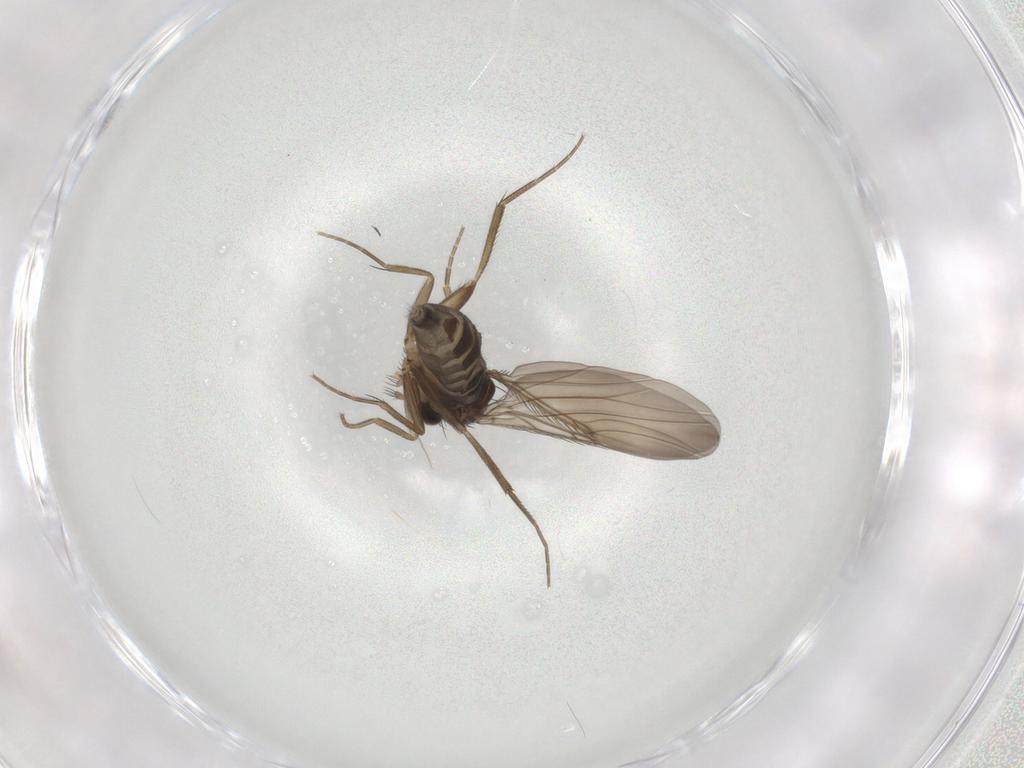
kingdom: Animalia
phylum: Arthropoda
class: Insecta
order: Diptera
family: Phoridae
